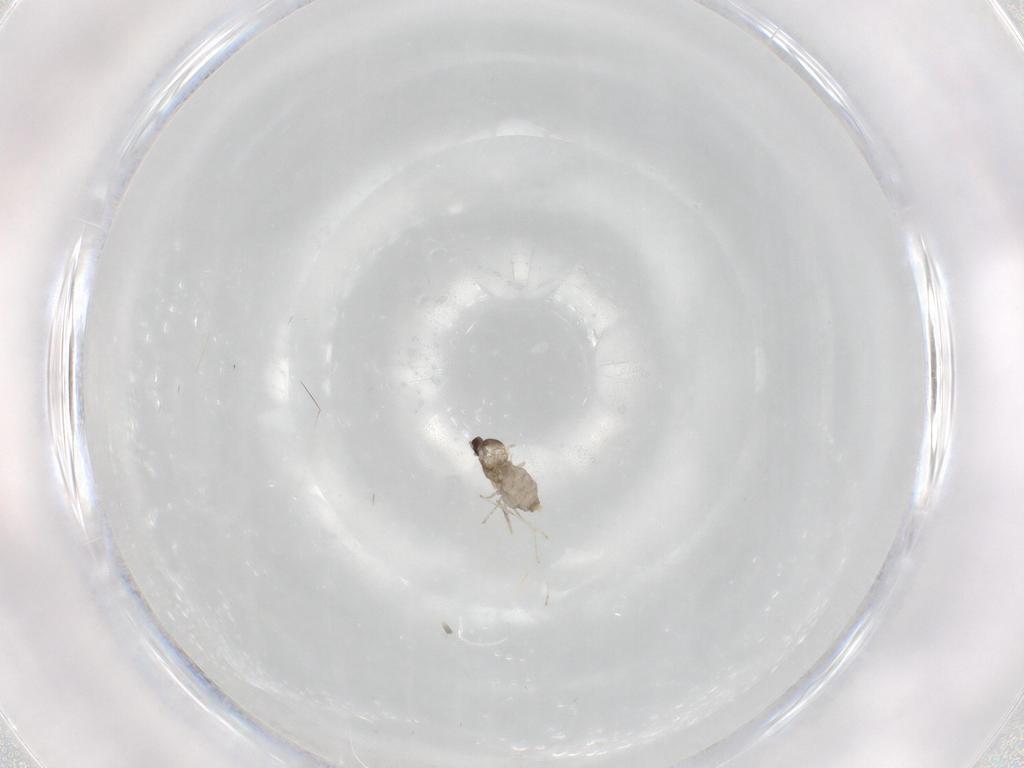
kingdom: Animalia
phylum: Arthropoda
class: Insecta
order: Diptera
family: Cecidomyiidae
